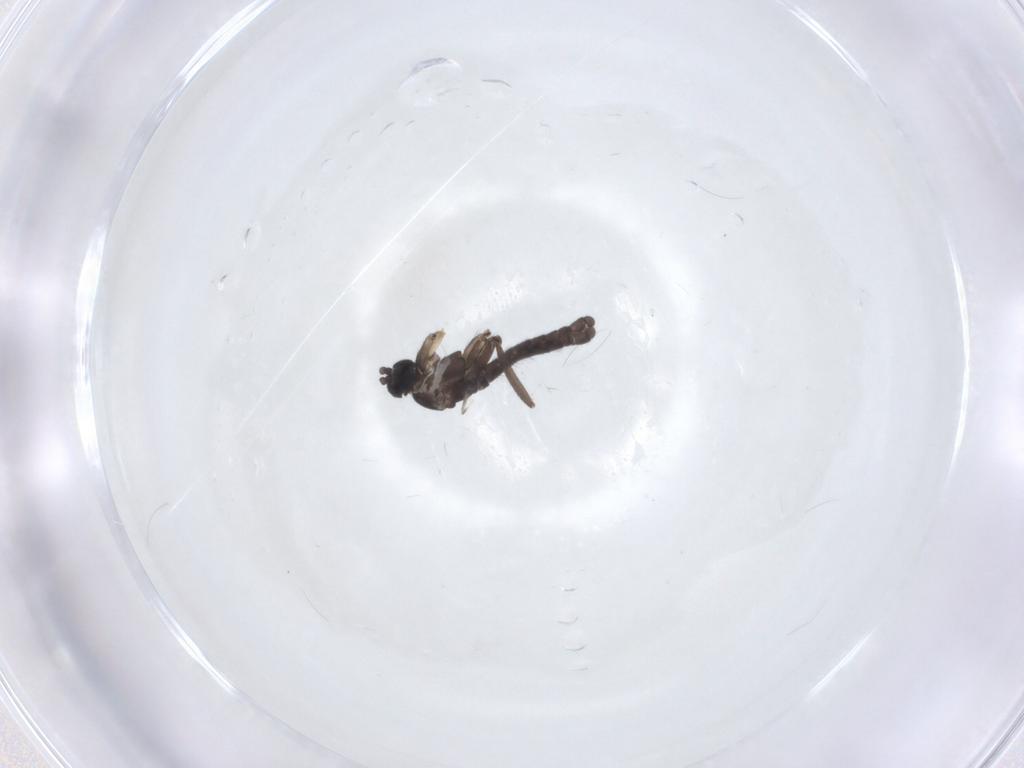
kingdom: Animalia
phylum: Arthropoda
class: Insecta
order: Diptera
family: Sciaridae
